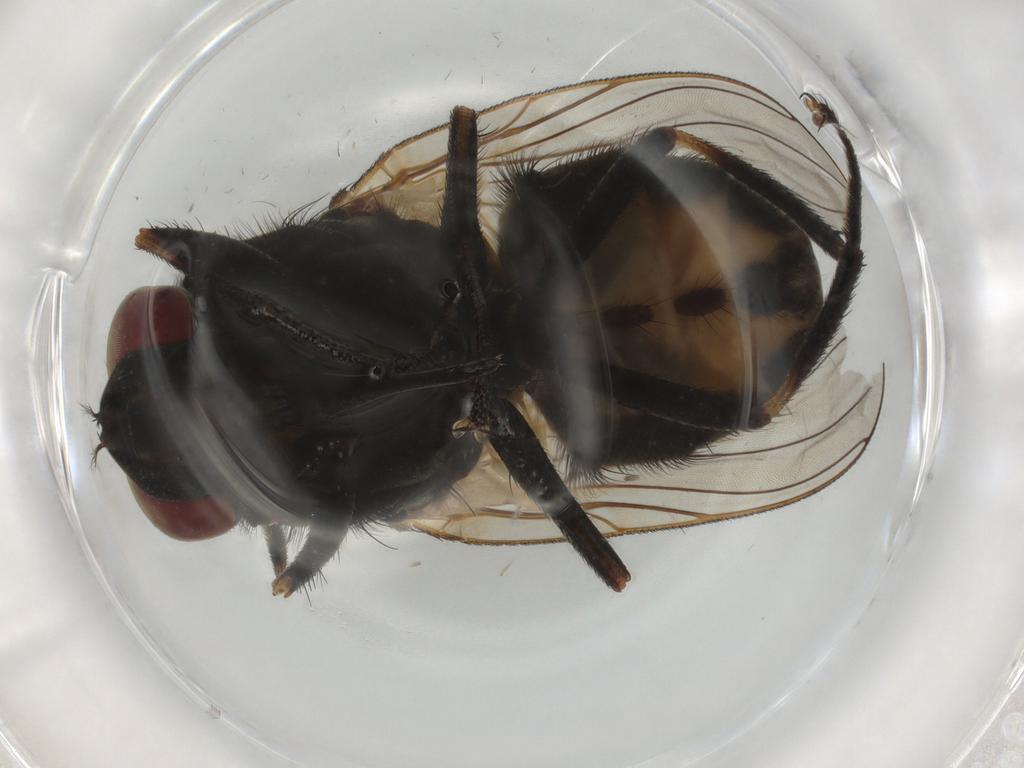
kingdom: Animalia
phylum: Arthropoda
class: Insecta
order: Diptera
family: Muscidae
